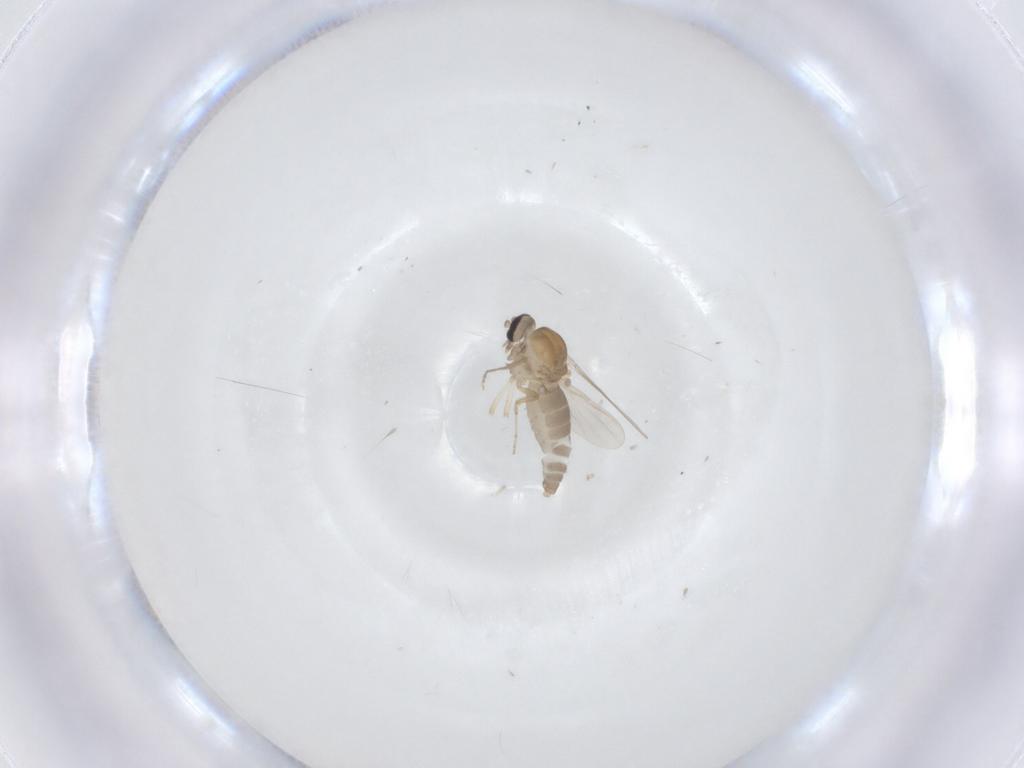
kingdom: Animalia
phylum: Arthropoda
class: Insecta
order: Diptera
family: Ceratopogonidae
